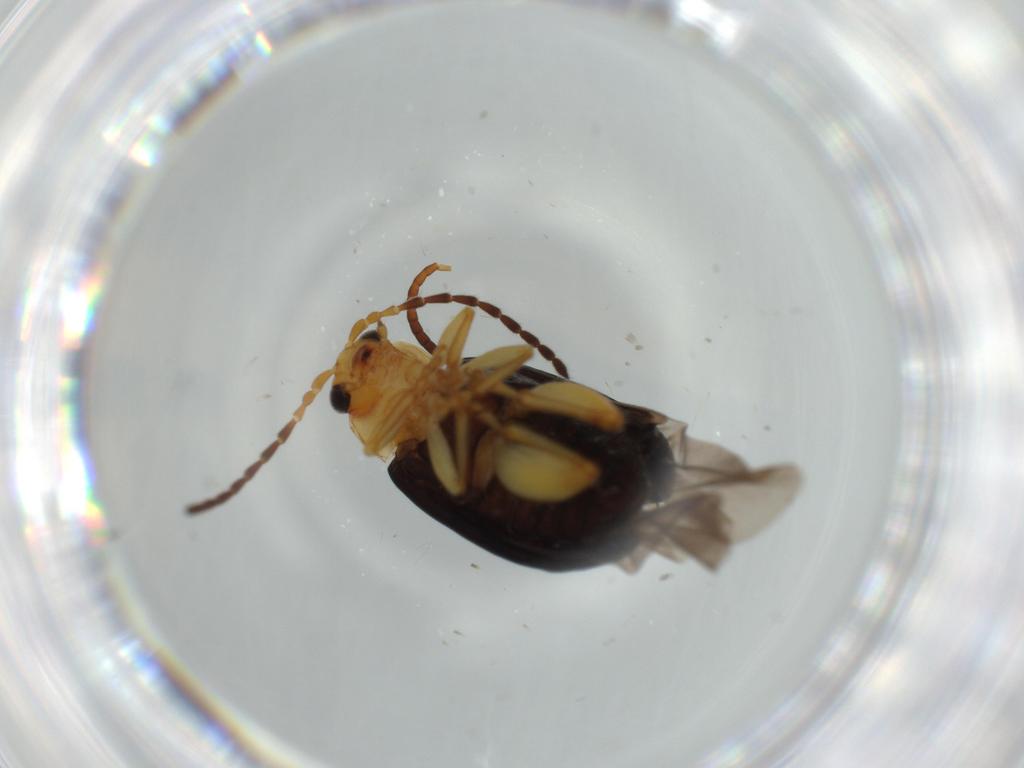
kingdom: Animalia
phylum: Arthropoda
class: Insecta
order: Coleoptera
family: Chrysomelidae
